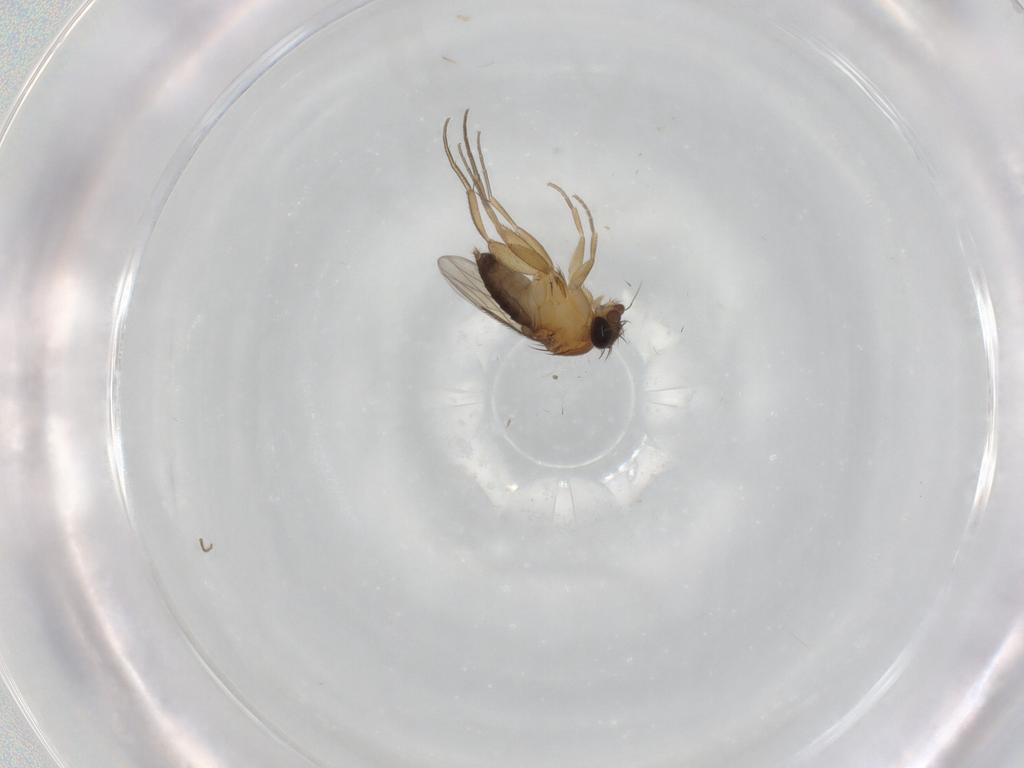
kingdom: Animalia
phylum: Arthropoda
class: Insecta
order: Diptera
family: Phoridae
